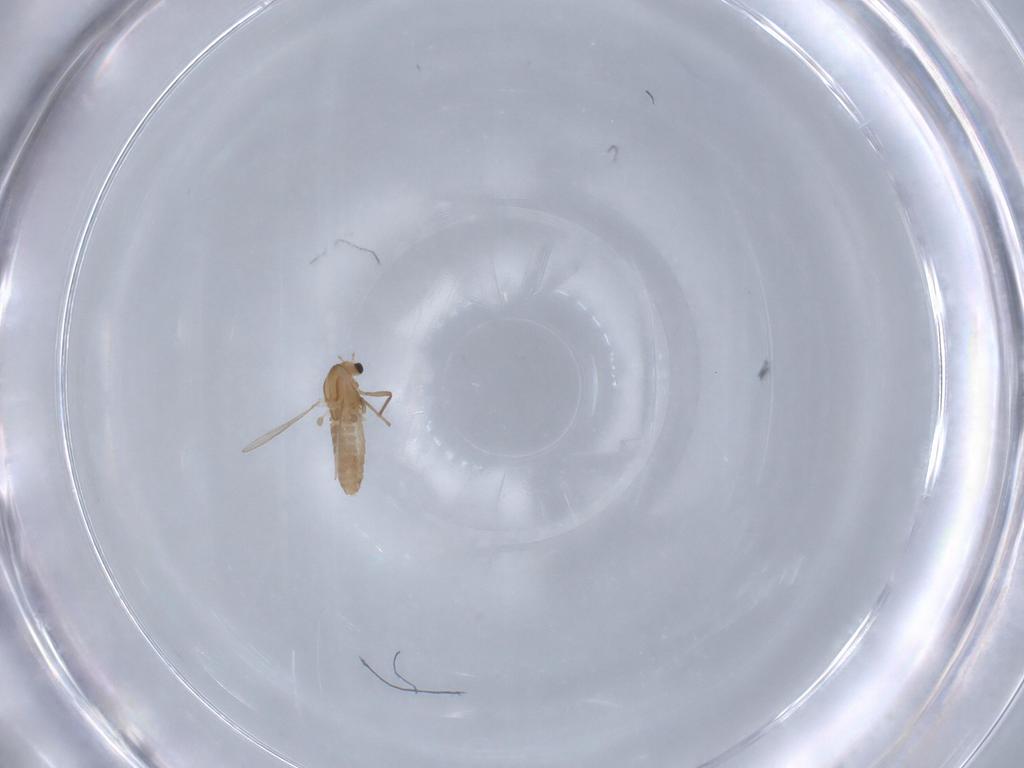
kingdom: Animalia
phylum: Arthropoda
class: Insecta
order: Diptera
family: Chironomidae
